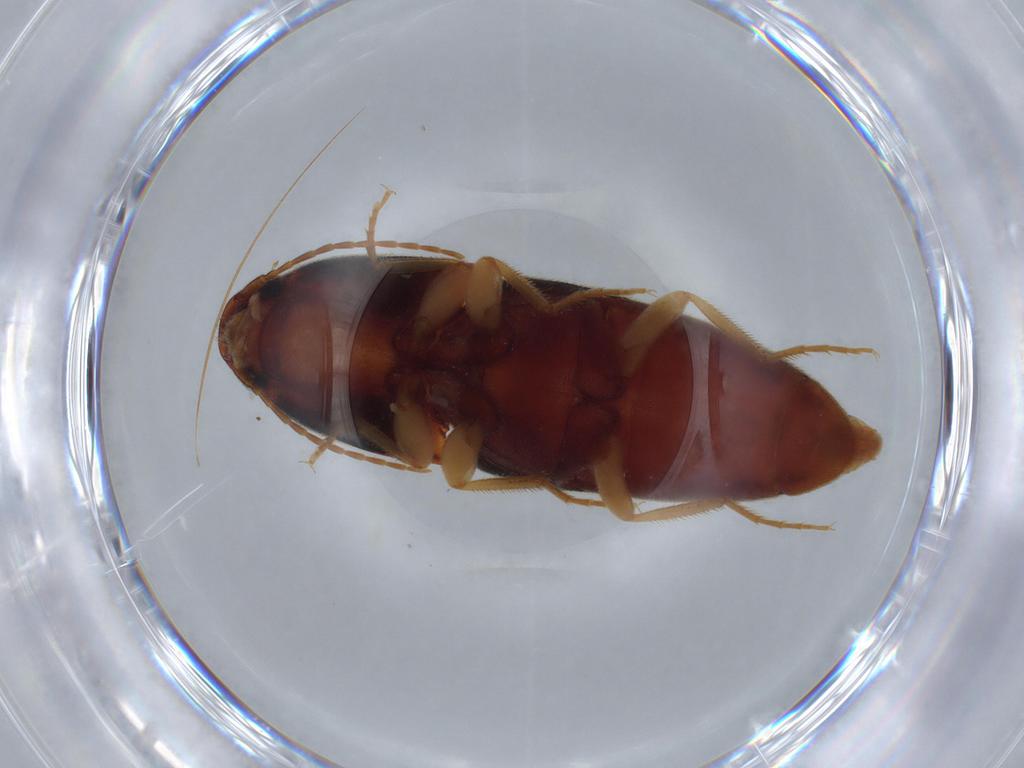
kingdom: Animalia
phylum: Arthropoda
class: Insecta
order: Coleoptera
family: Elateridae
